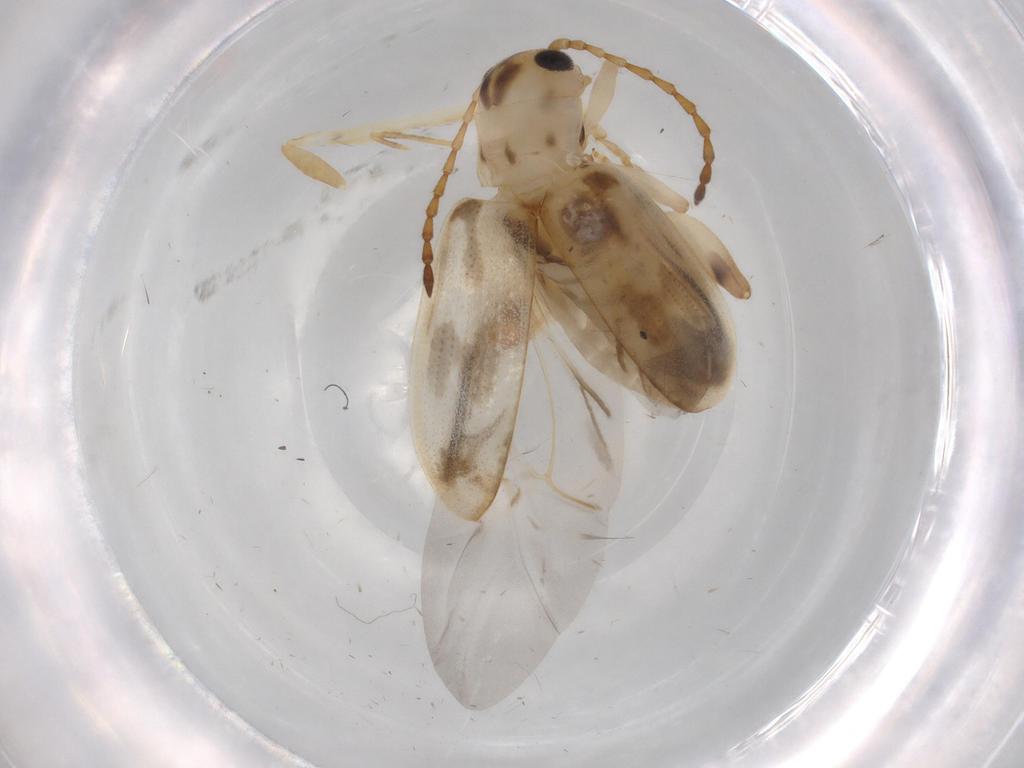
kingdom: Animalia
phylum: Arthropoda
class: Insecta
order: Coleoptera
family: Chrysomelidae
